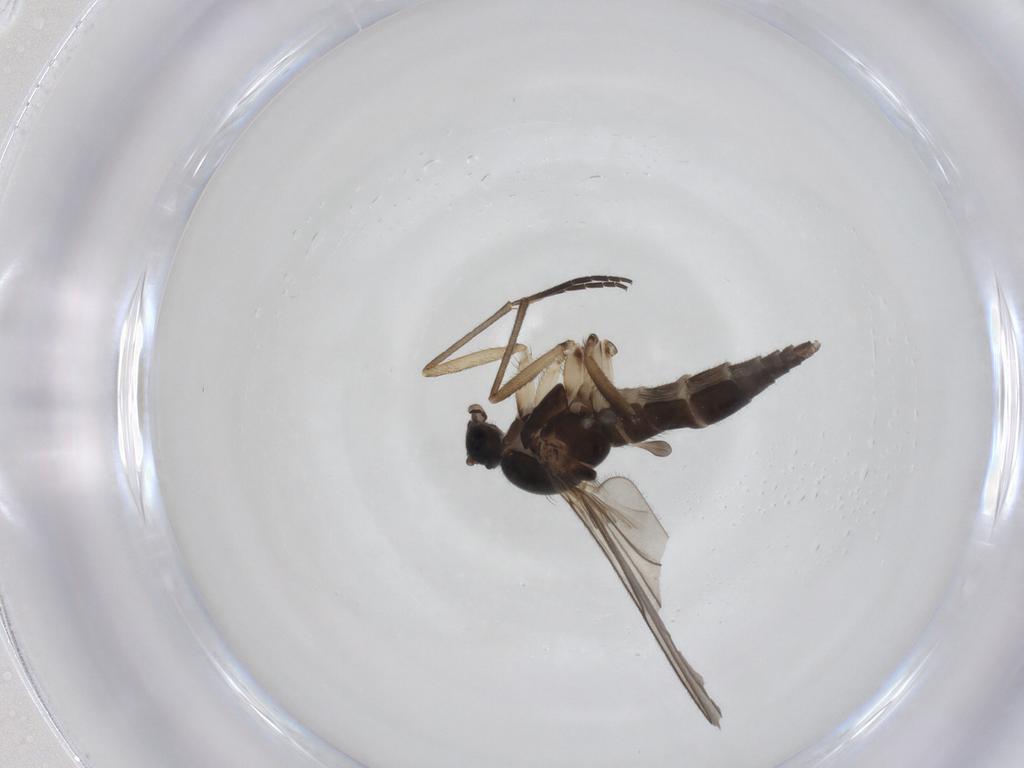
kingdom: Animalia
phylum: Arthropoda
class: Insecta
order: Diptera
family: Sciaridae
